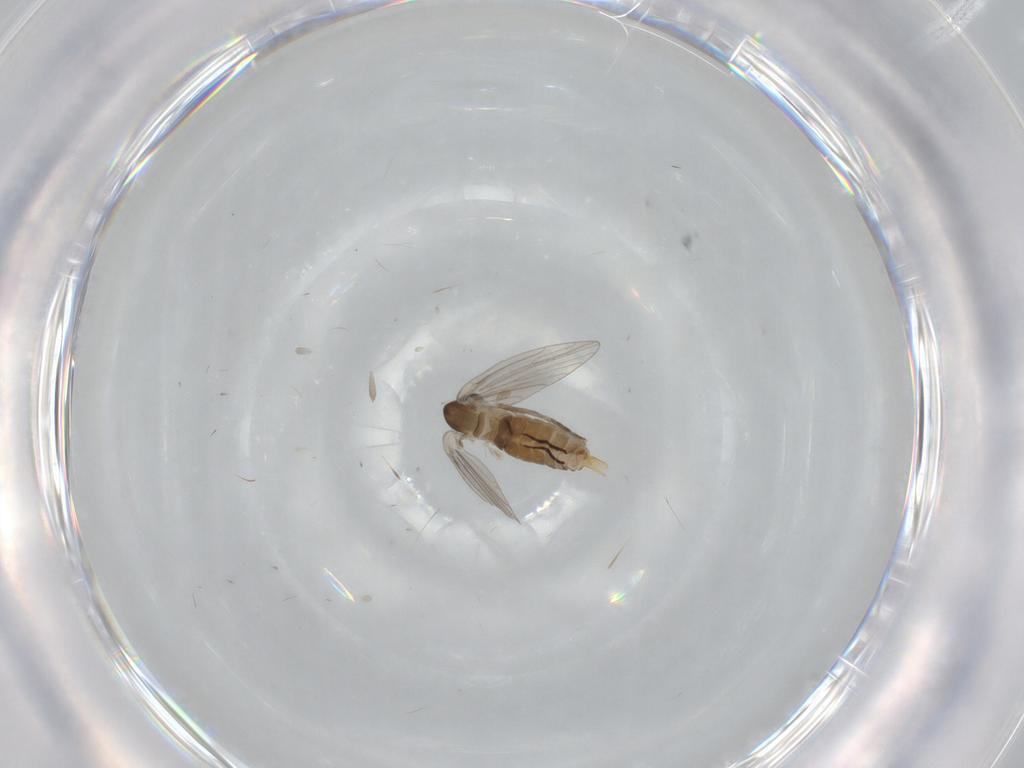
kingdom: Animalia
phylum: Arthropoda
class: Insecta
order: Diptera
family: Psychodidae
